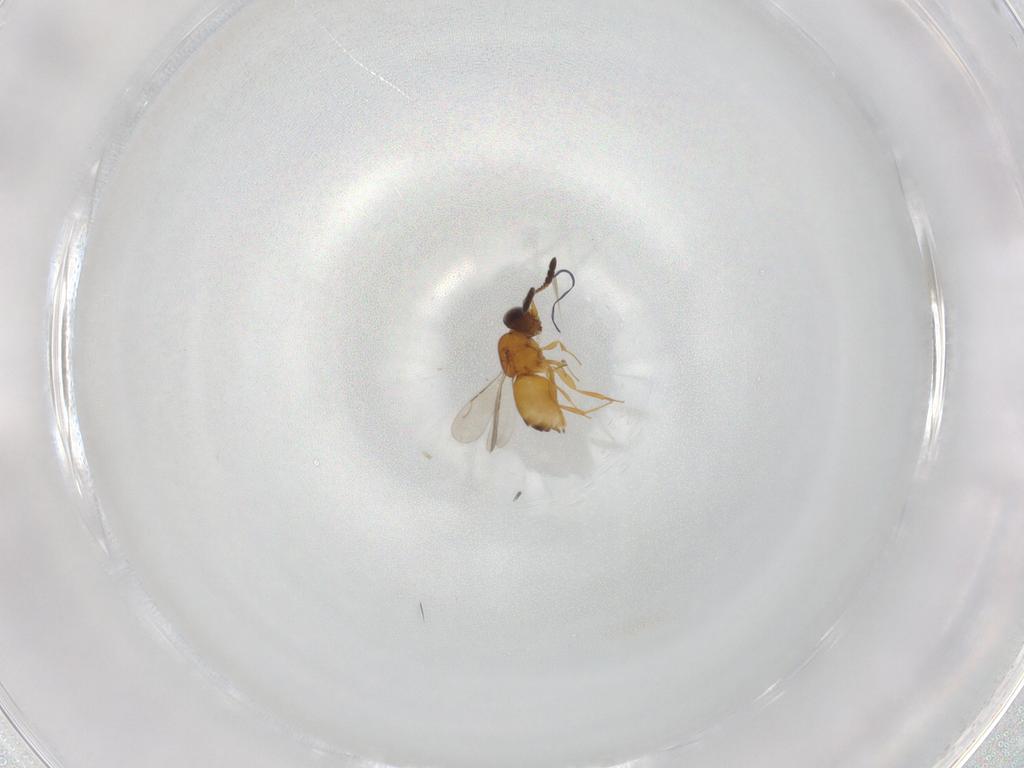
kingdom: Animalia
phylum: Arthropoda
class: Insecta
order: Hymenoptera
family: Ceraphronidae
